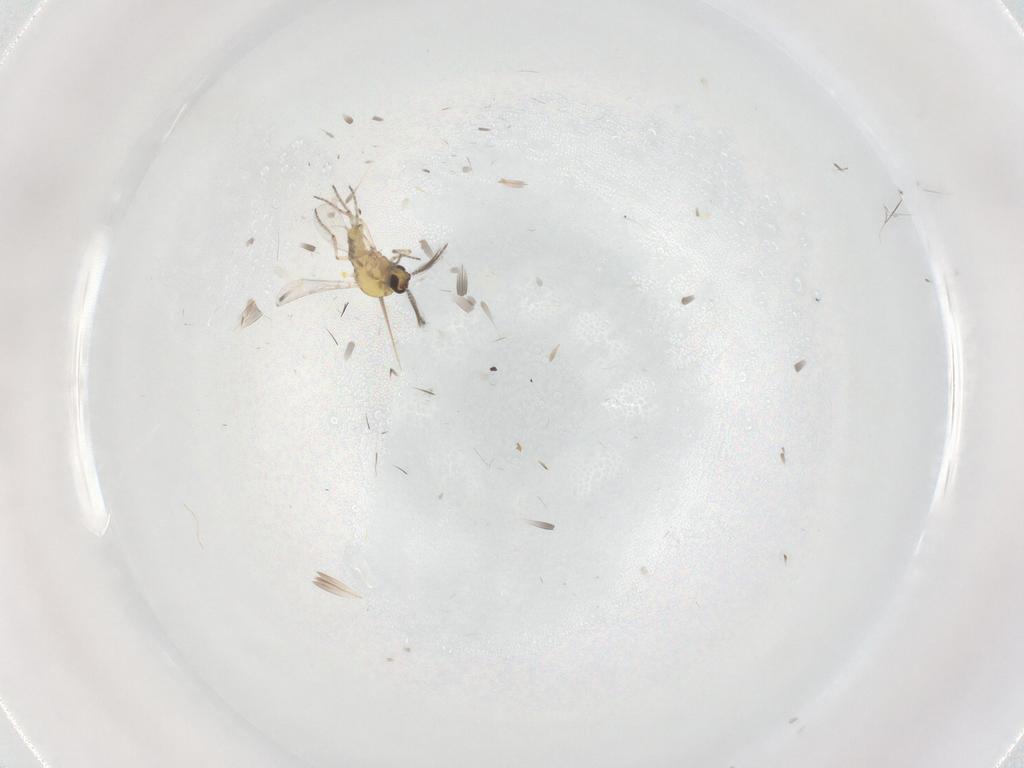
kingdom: Animalia
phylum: Arthropoda
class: Insecta
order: Diptera
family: Ceratopogonidae
